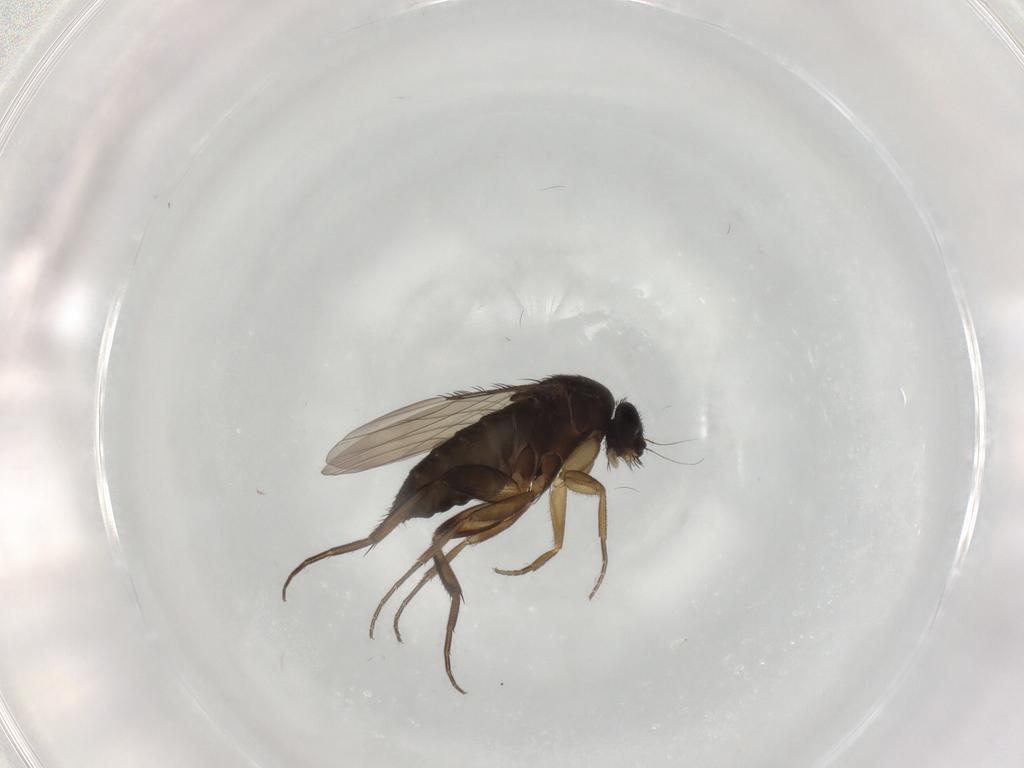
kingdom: Animalia
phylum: Arthropoda
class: Insecta
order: Diptera
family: Phoridae
